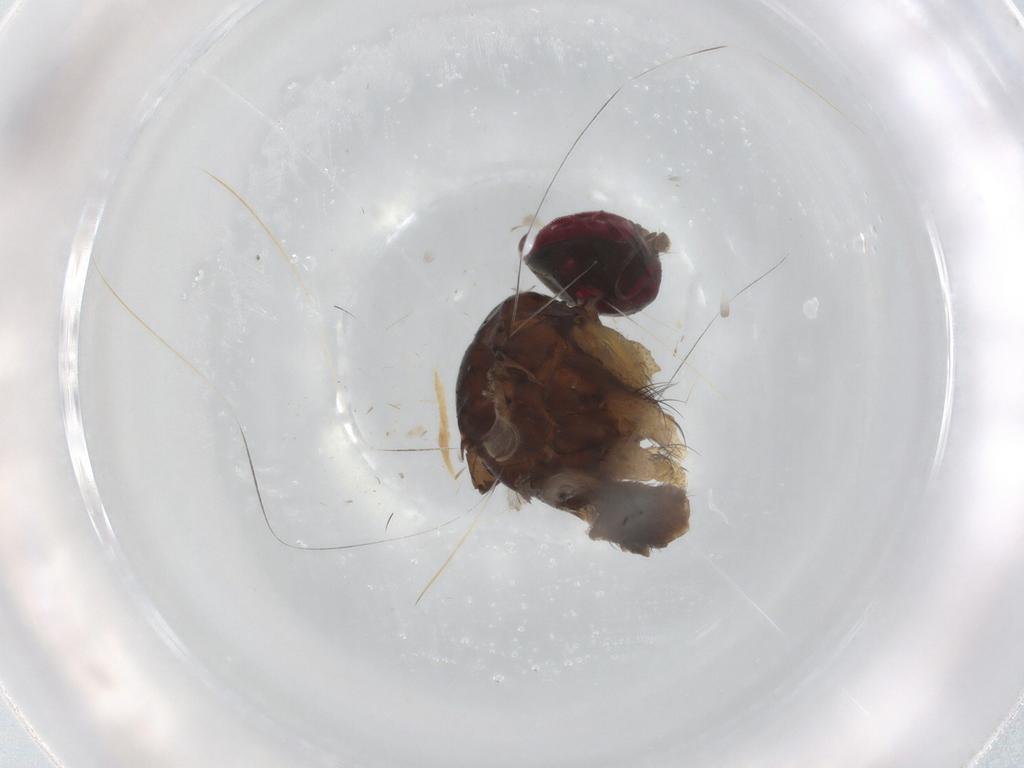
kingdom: Animalia
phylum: Arthropoda
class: Insecta
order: Diptera
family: Muscidae
